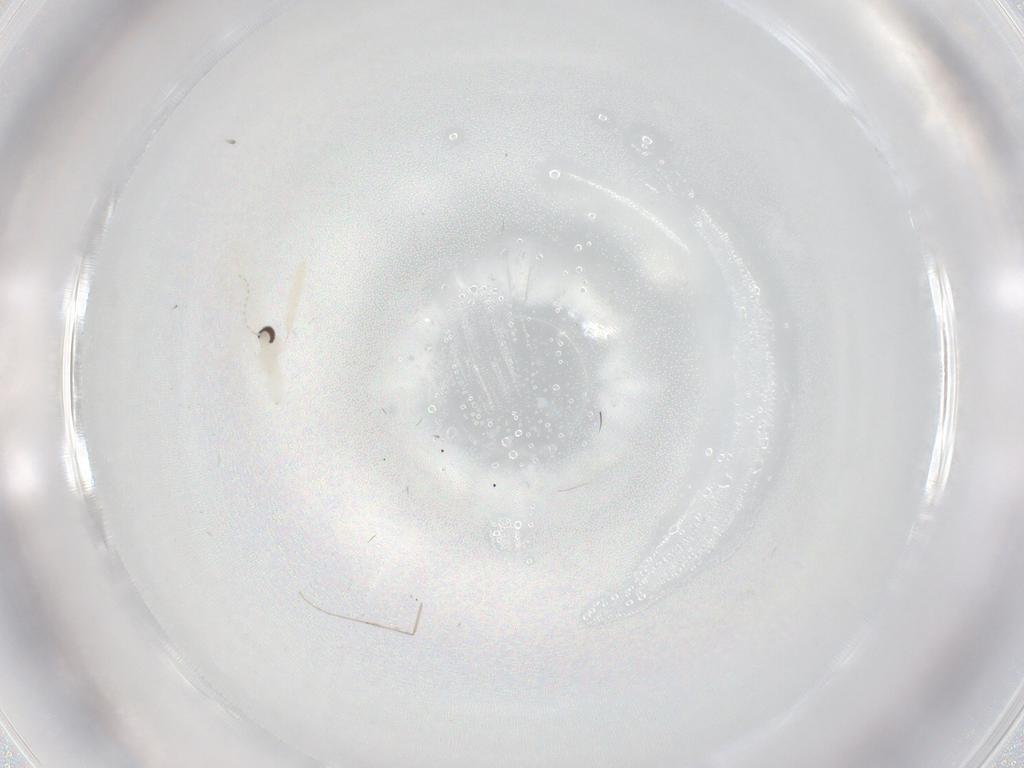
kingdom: Animalia
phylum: Arthropoda
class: Insecta
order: Diptera
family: Cecidomyiidae
